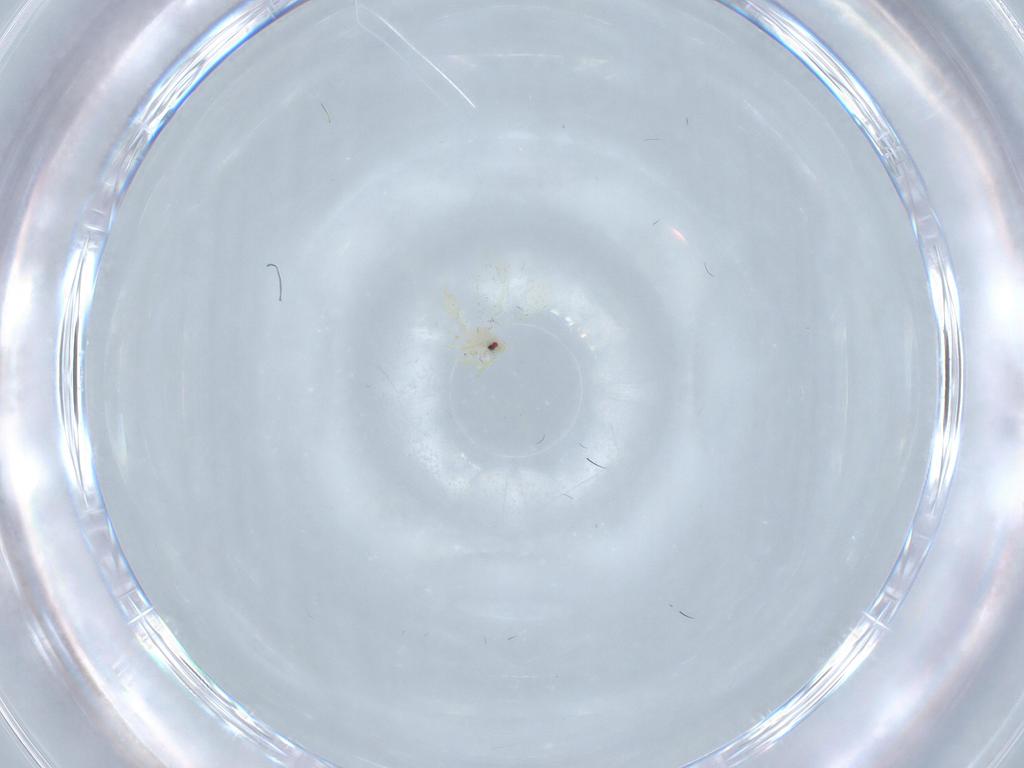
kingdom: Animalia
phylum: Arthropoda
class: Insecta
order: Hemiptera
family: Aleyrodidae
